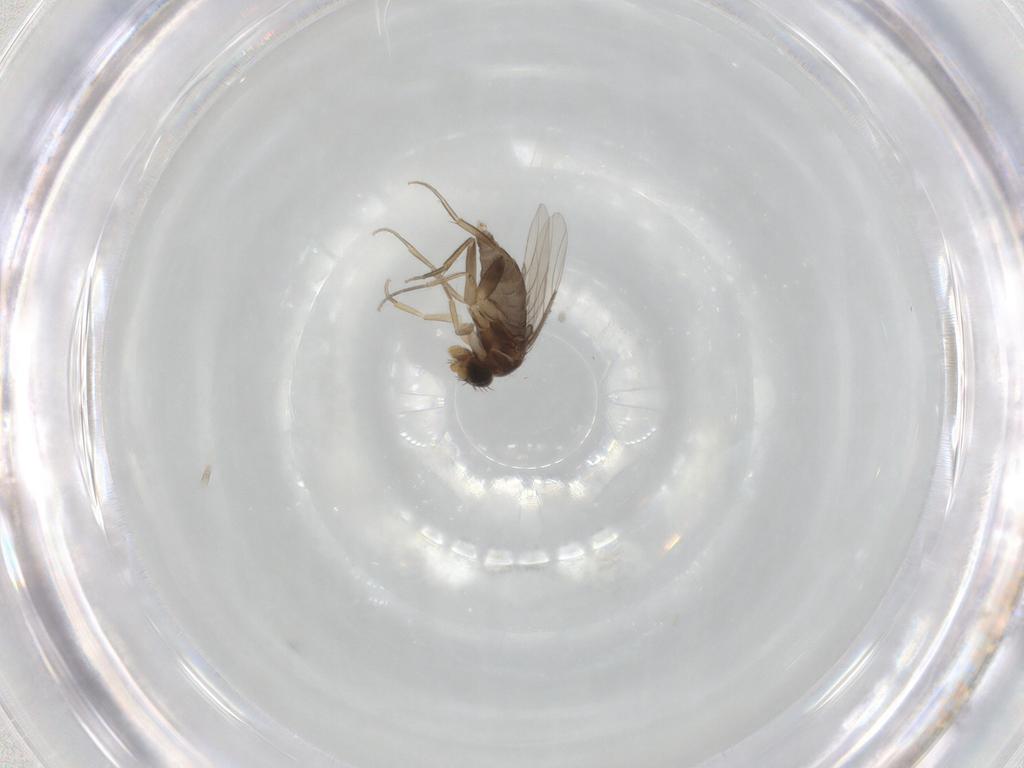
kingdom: Animalia
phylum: Arthropoda
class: Insecta
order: Diptera
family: Phoridae
